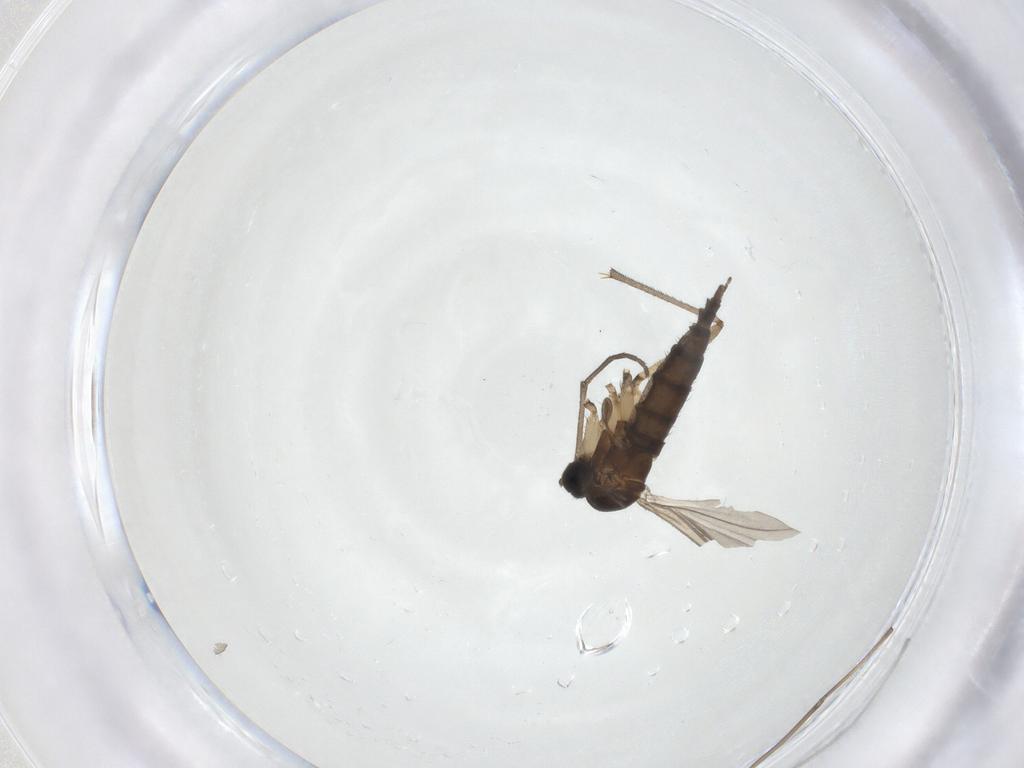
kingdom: Animalia
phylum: Arthropoda
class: Insecta
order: Diptera
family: Sciaridae
